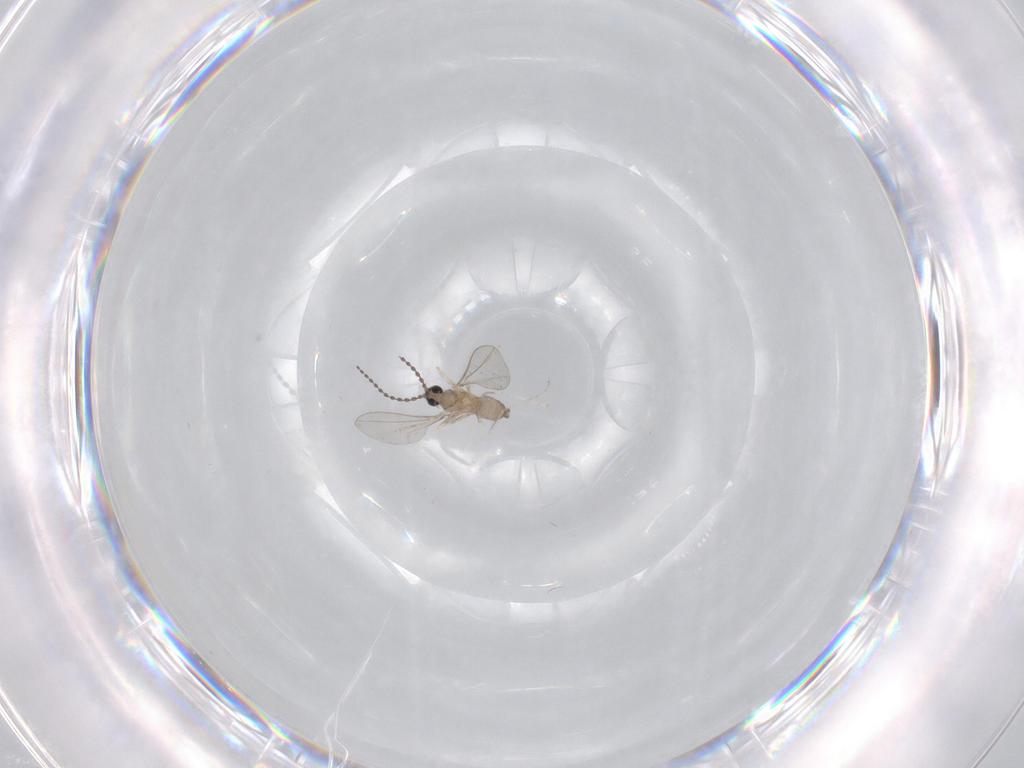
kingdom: Animalia
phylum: Arthropoda
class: Insecta
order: Diptera
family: Cecidomyiidae
